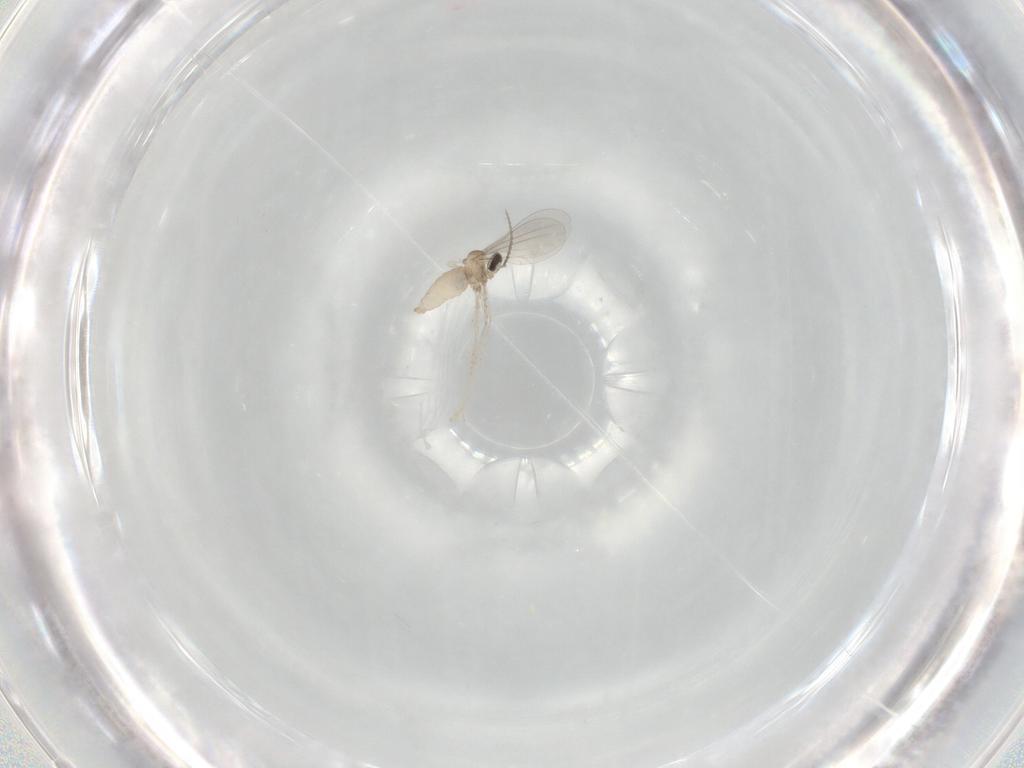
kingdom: Animalia
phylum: Arthropoda
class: Insecta
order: Diptera
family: Cecidomyiidae
